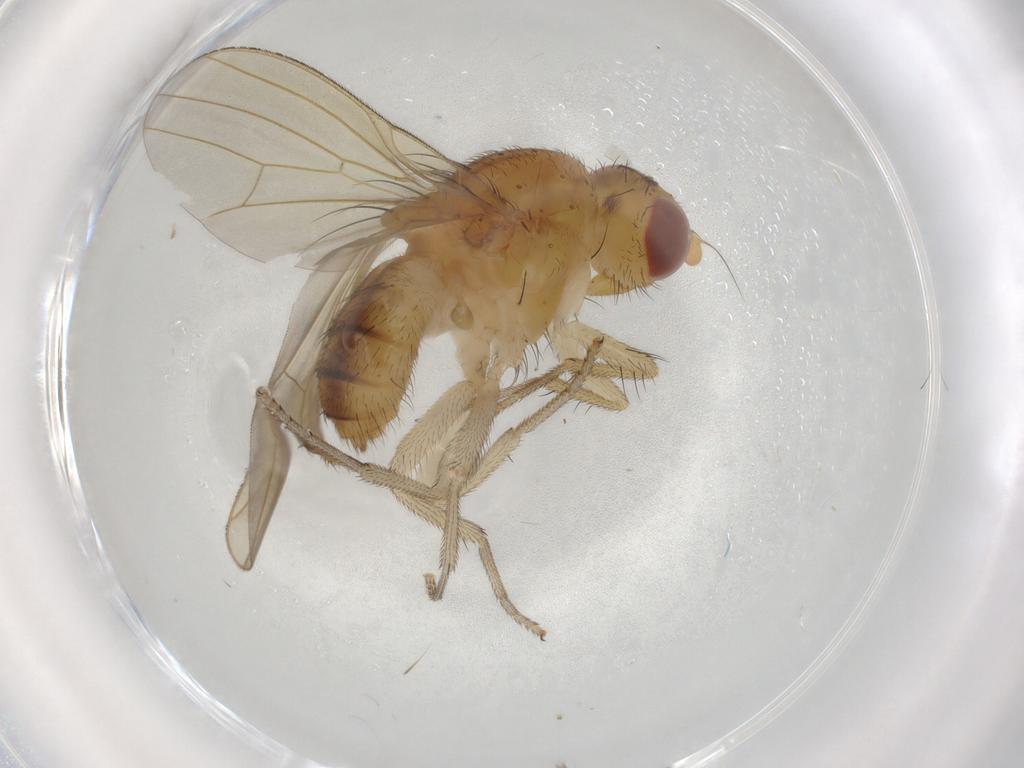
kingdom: Animalia
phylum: Arthropoda
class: Insecta
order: Diptera
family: Lauxaniidae
